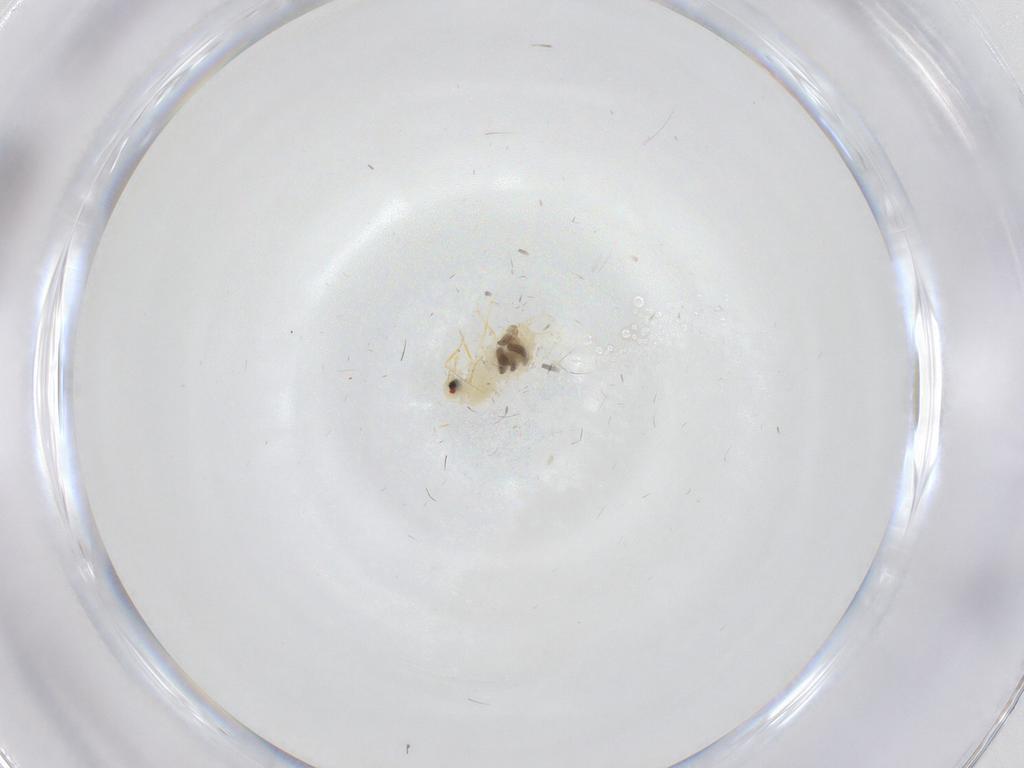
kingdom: Animalia
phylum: Arthropoda
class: Insecta
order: Hemiptera
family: Aleyrodidae
